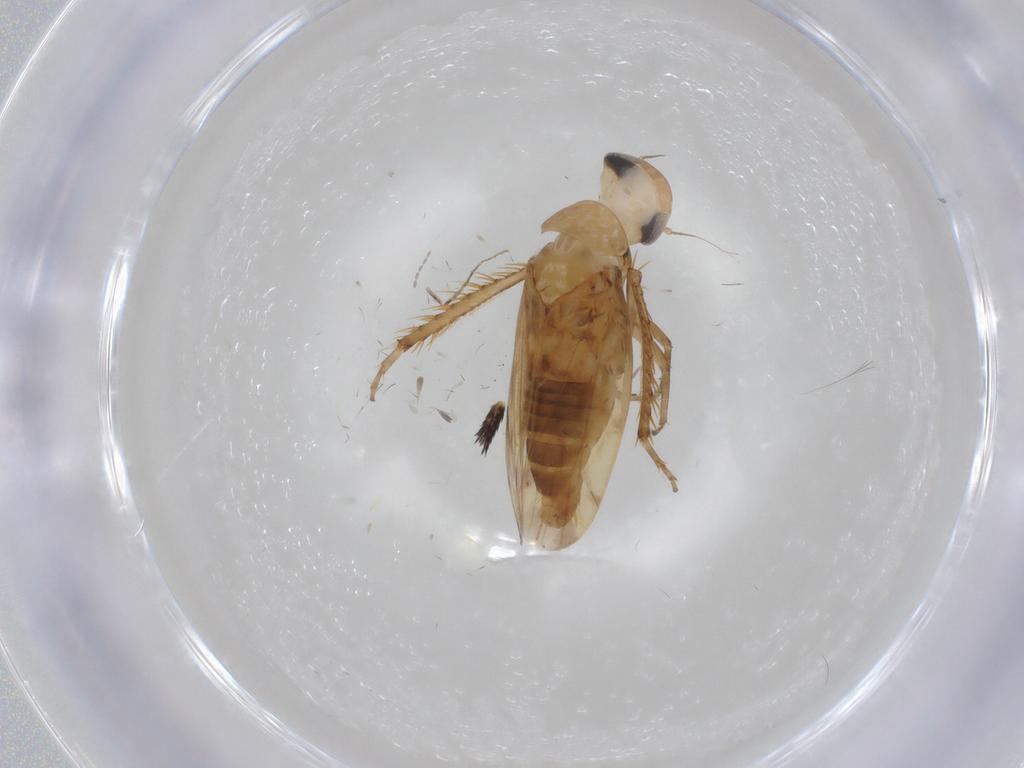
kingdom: Animalia
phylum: Arthropoda
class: Insecta
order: Hemiptera
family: Cicadellidae
